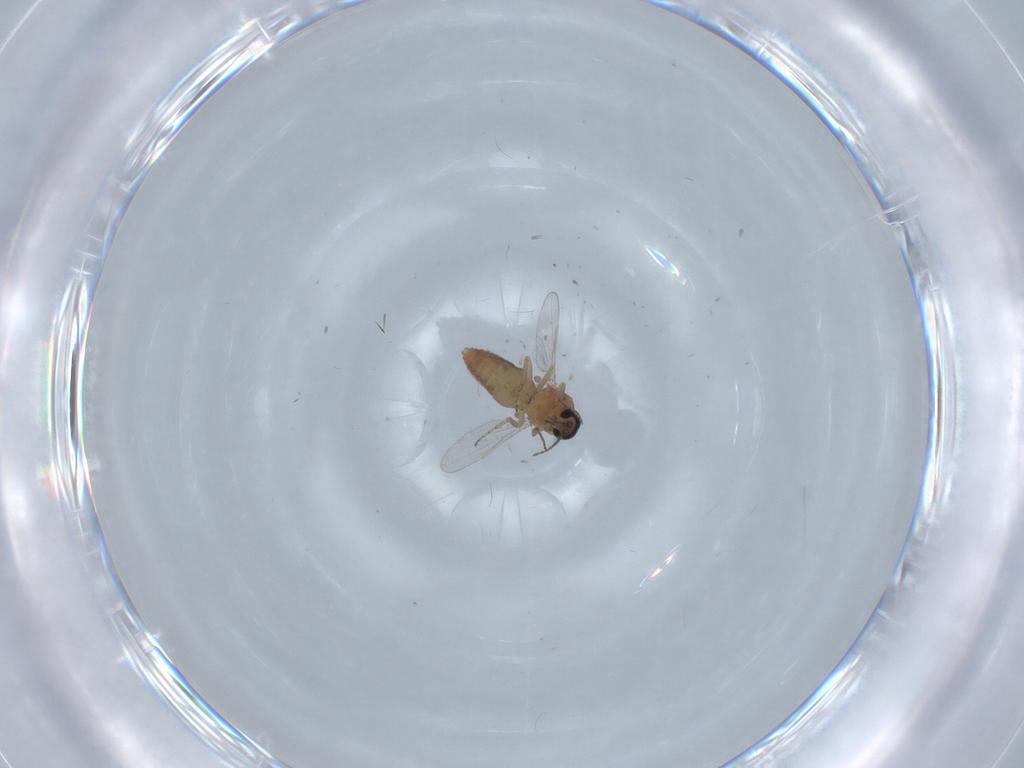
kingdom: Animalia
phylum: Arthropoda
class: Insecta
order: Diptera
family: Ceratopogonidae
